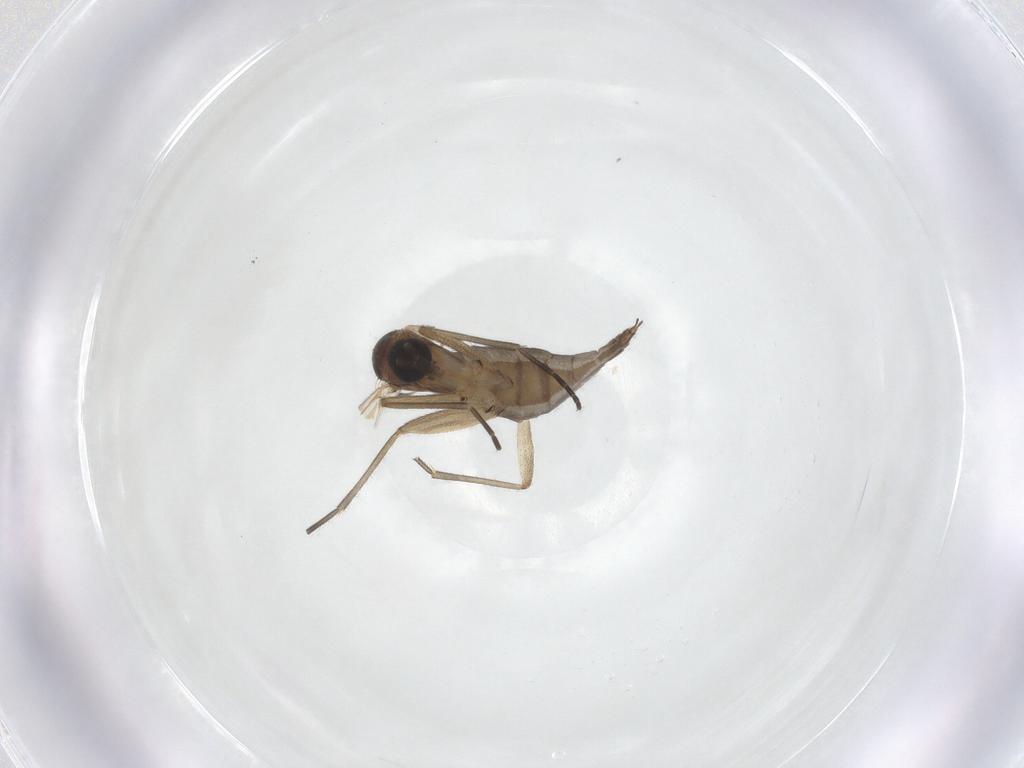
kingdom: Animalia
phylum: Arthropoda
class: Insecta
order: Diptera
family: Sciaridae
